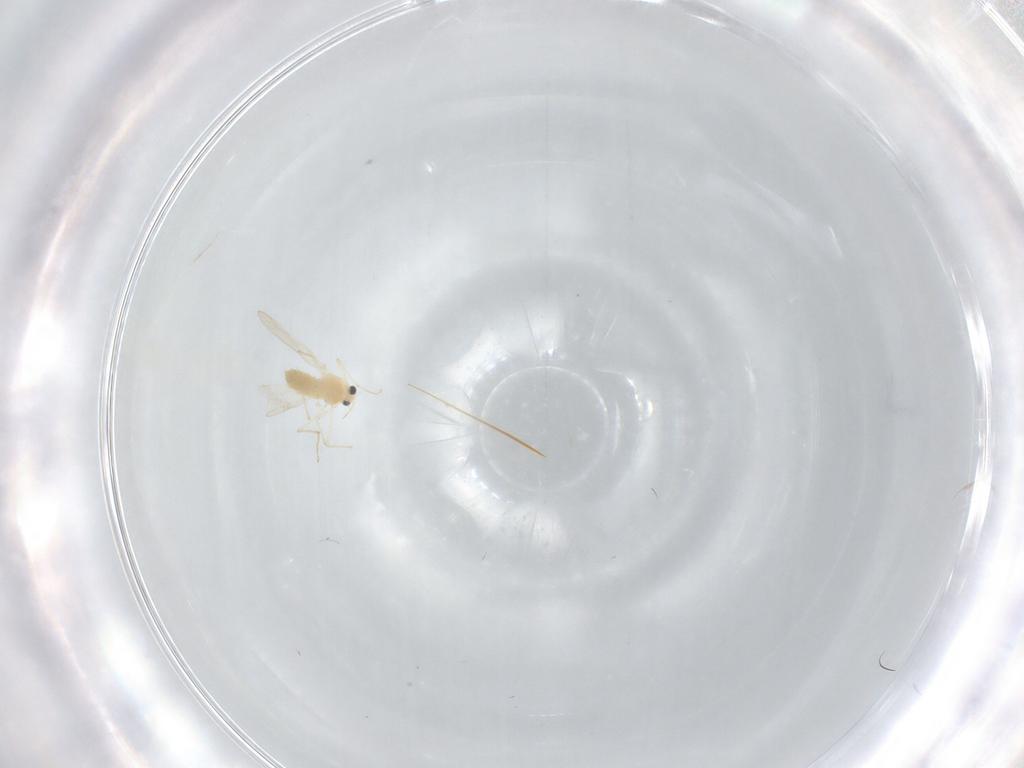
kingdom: Animalia
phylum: Arthropoda
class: Insecta
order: Diptera
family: Chironomidae
